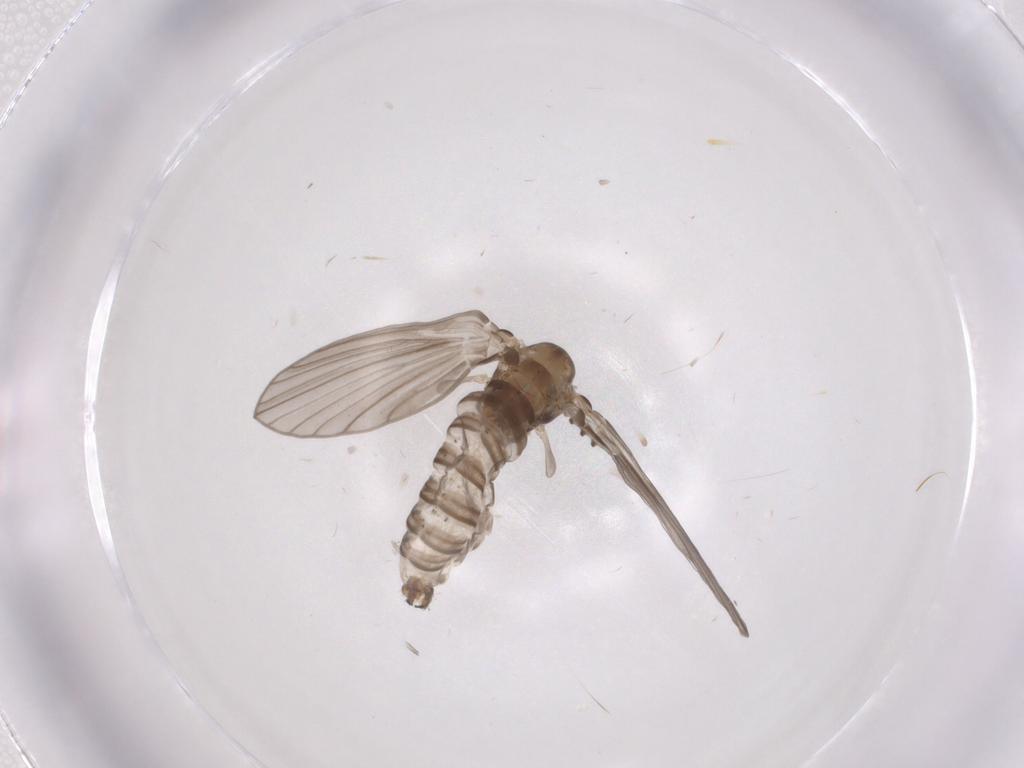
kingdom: Animalia
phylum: Arthropoda
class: Insecta
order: Diptera
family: Psychodidae
